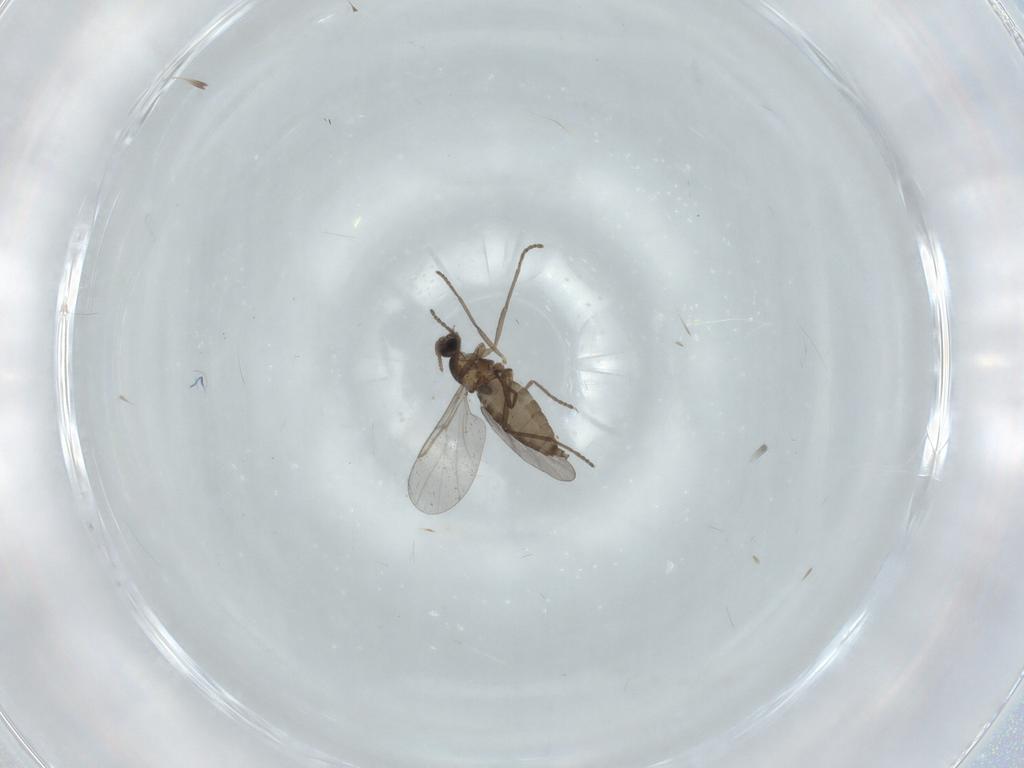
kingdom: Animalia
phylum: Arthropoda
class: Insecta
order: Diptera
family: Cecidomyiidae
